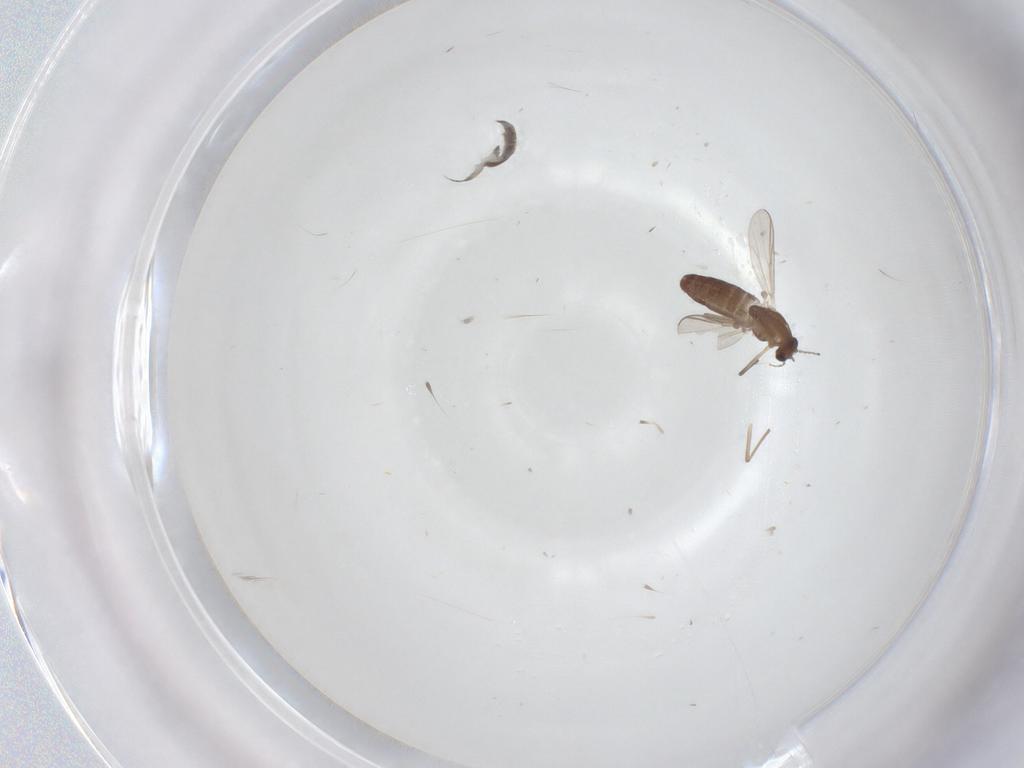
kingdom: Animalia
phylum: Arthropoda
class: Insecta
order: Diptera
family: Chironomidae
